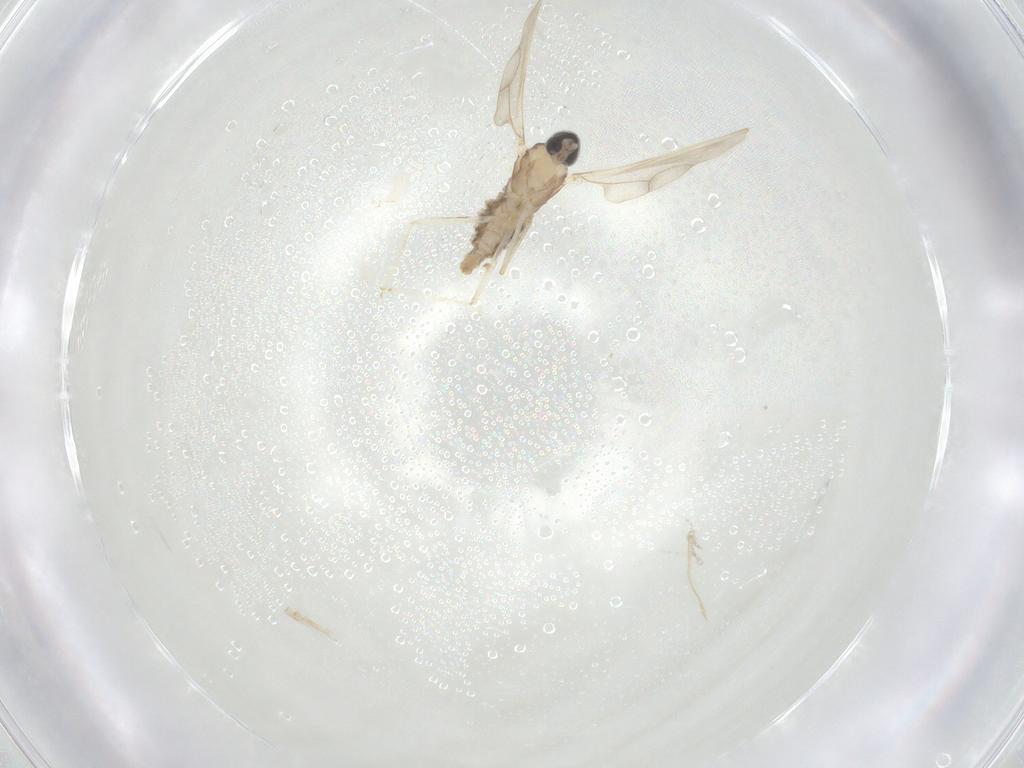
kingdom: Animalia
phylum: Arthropoda
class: Insecta
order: Diptera
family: Cecidomyiidae
